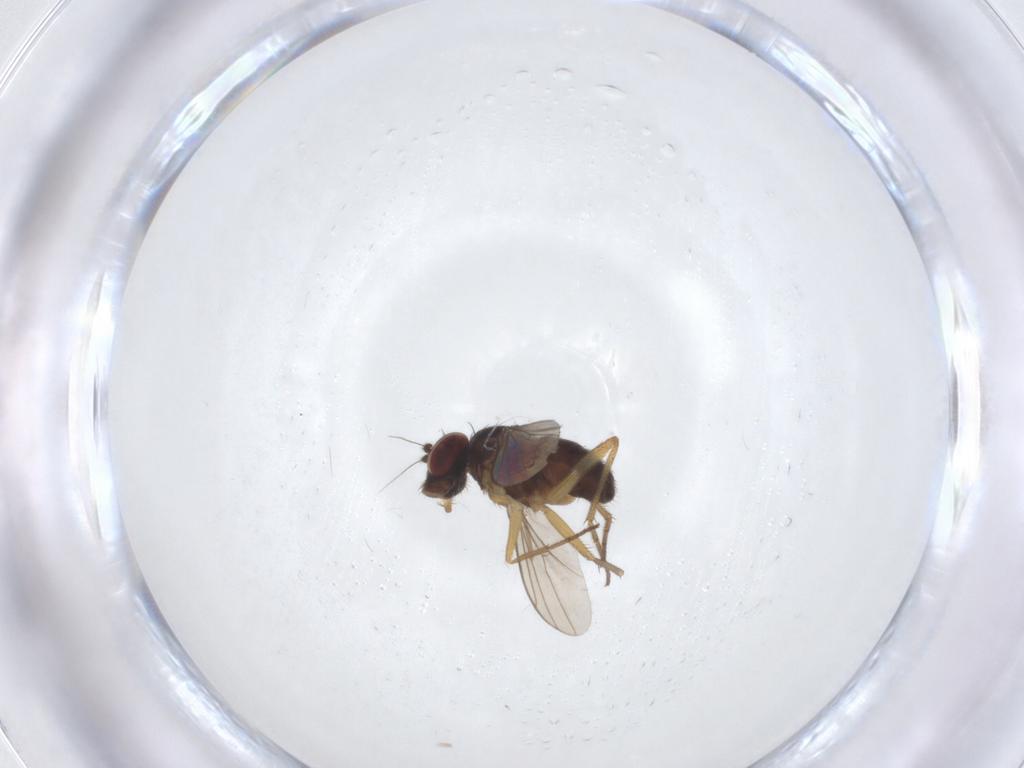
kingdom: Animalia
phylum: Arthropoda
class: Insecta
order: Diptera
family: Dolichopodidae
